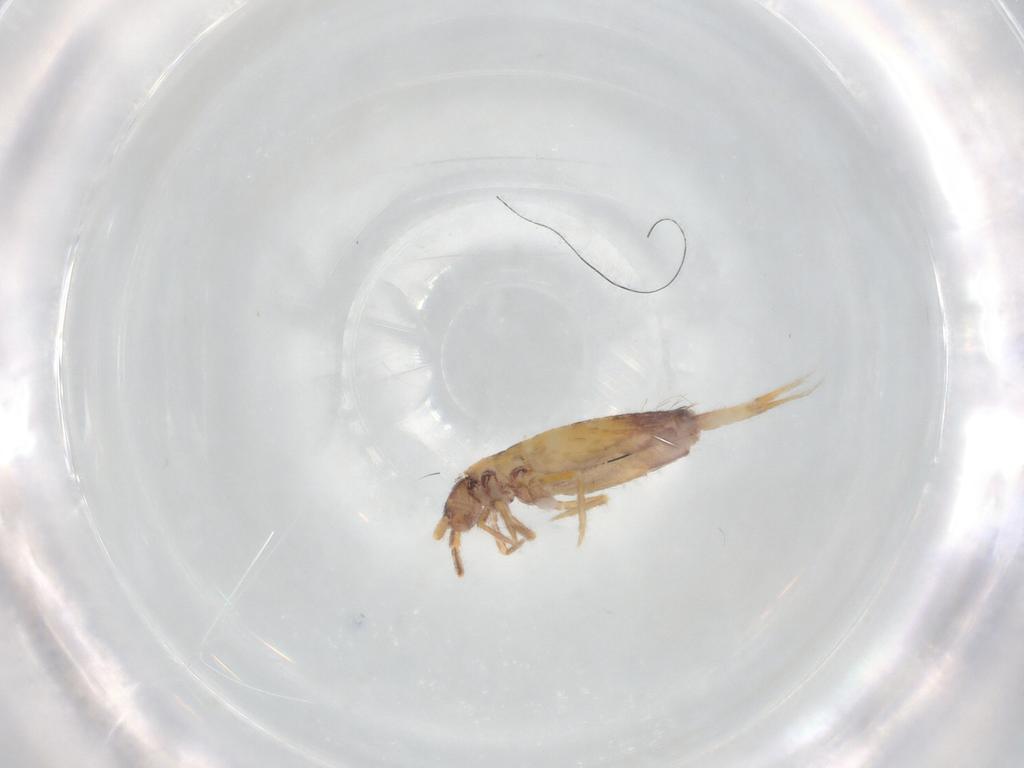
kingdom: Animalia
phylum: Arthropoda
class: Collembola
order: Entomobryomorpha
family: Entomobryidae
